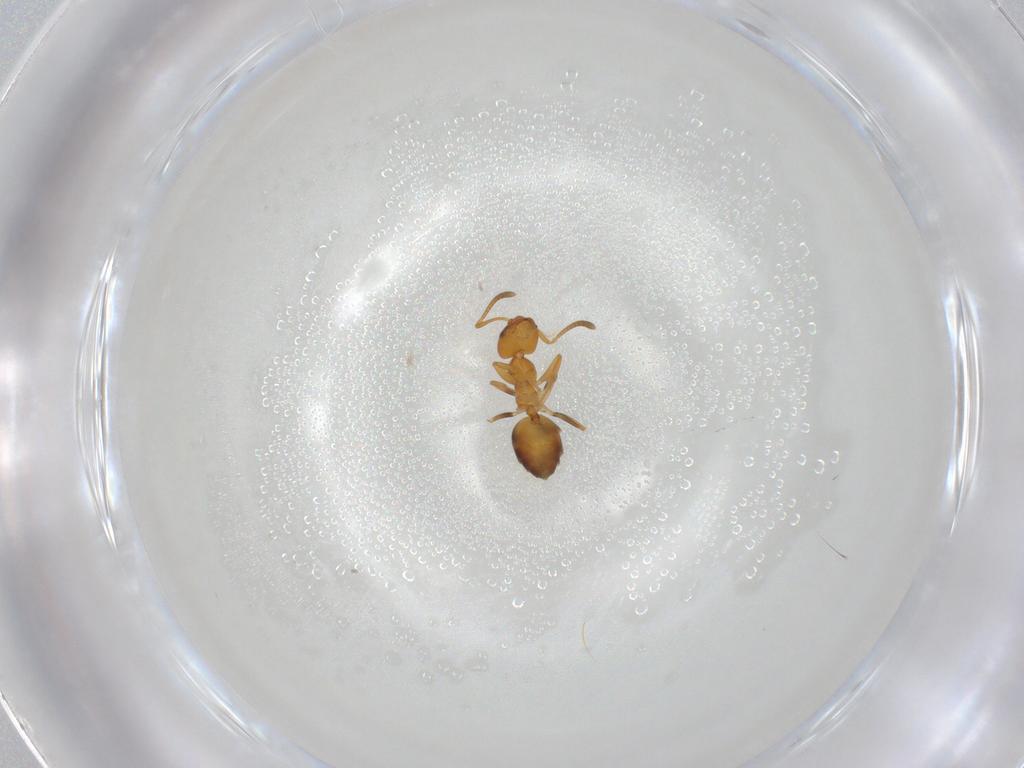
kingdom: Animalia
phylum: Arthropoda
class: Insecta
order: Hymenoptera
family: Formicidae
